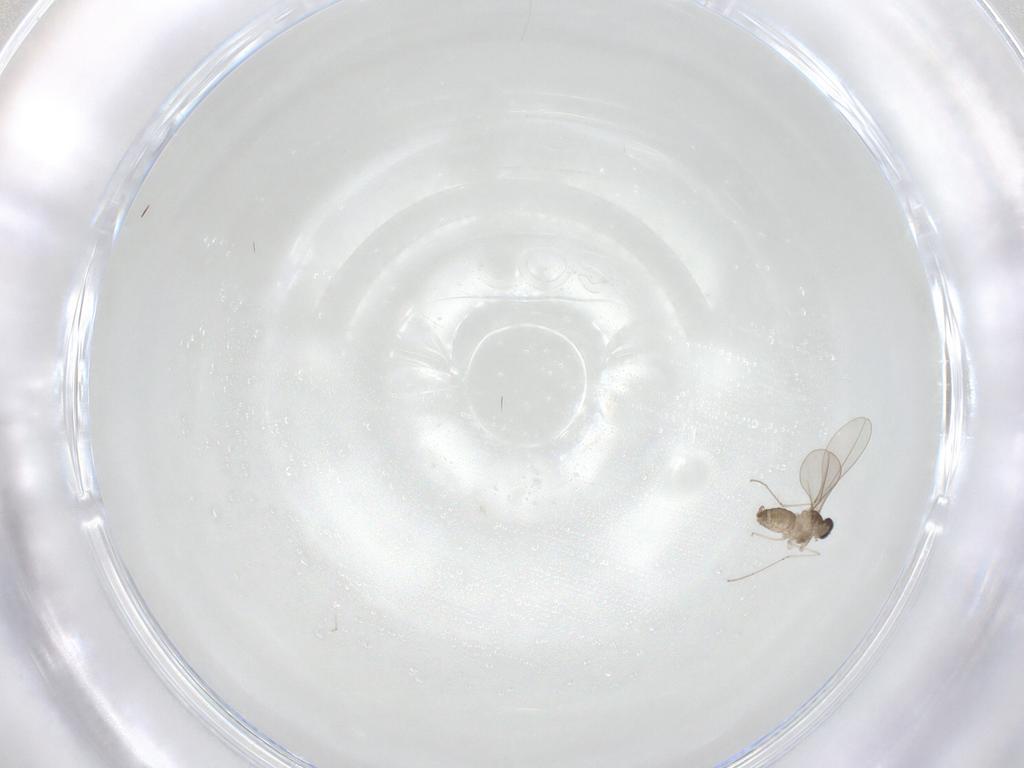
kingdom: Animalia
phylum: Arthropoda
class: Insecta
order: Diptera
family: Cecidomyiidae
